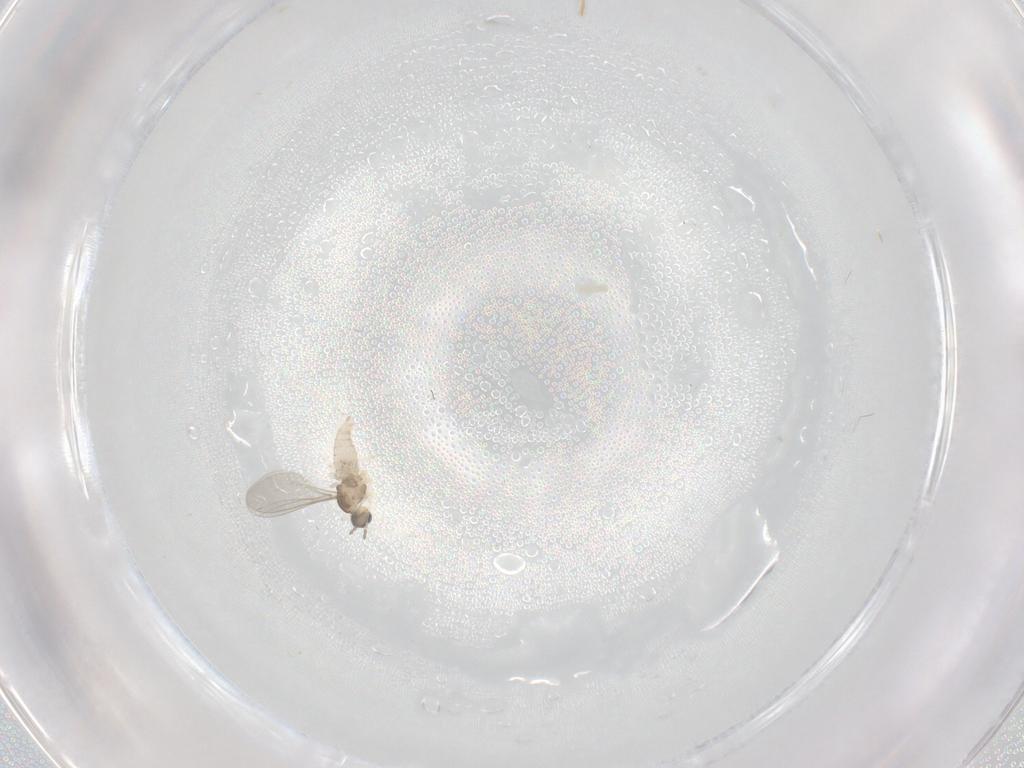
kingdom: Animalia
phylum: Arthropoda
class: Insecta
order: Diptera
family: Cecidomyiidae
